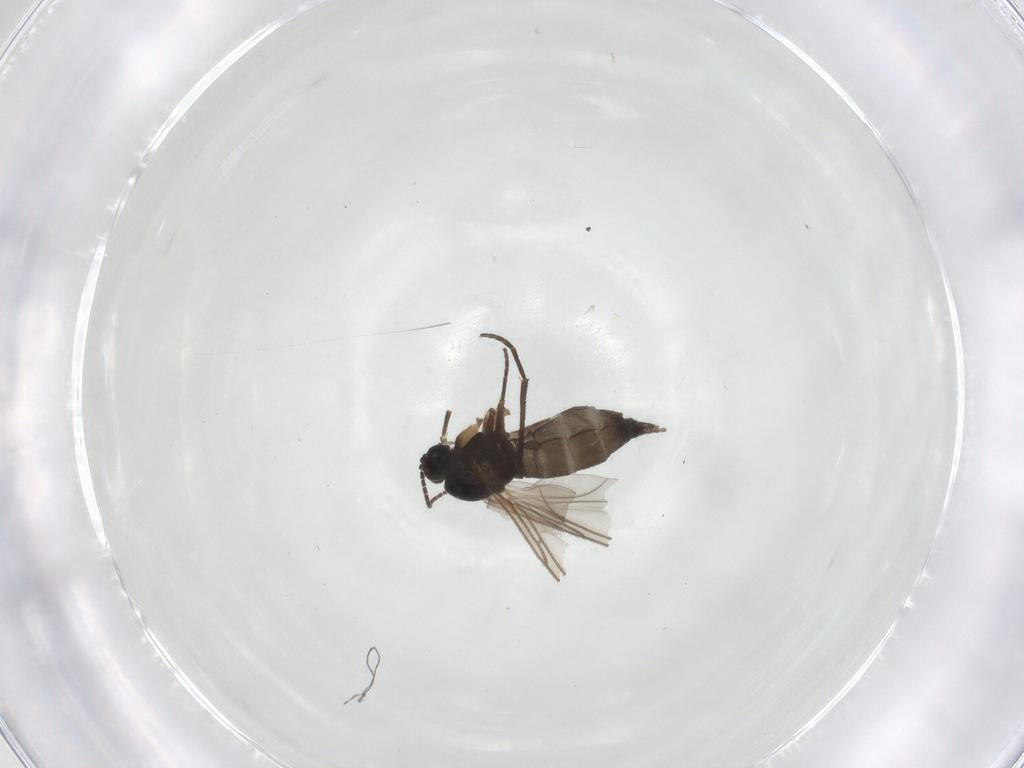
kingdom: Animalia
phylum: Arthropoda
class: Insecta
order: Diptera
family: Sciaridae
